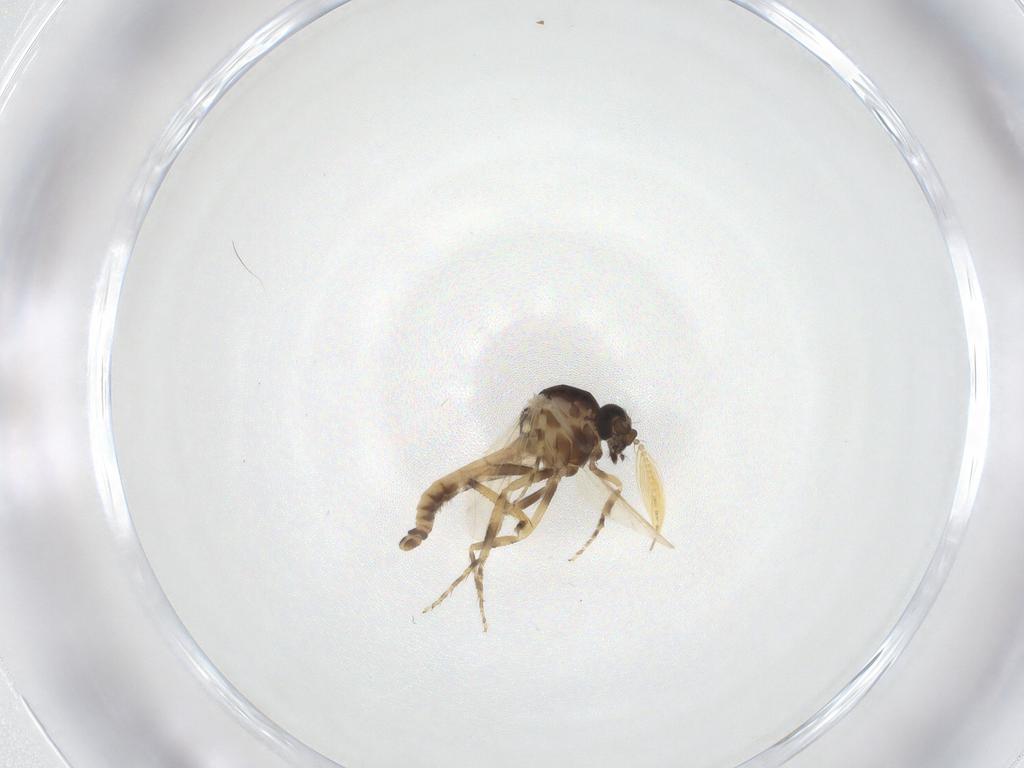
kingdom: Animalia
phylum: Arthropoda
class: Insecta
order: Diptera
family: Ceratopogonidae
